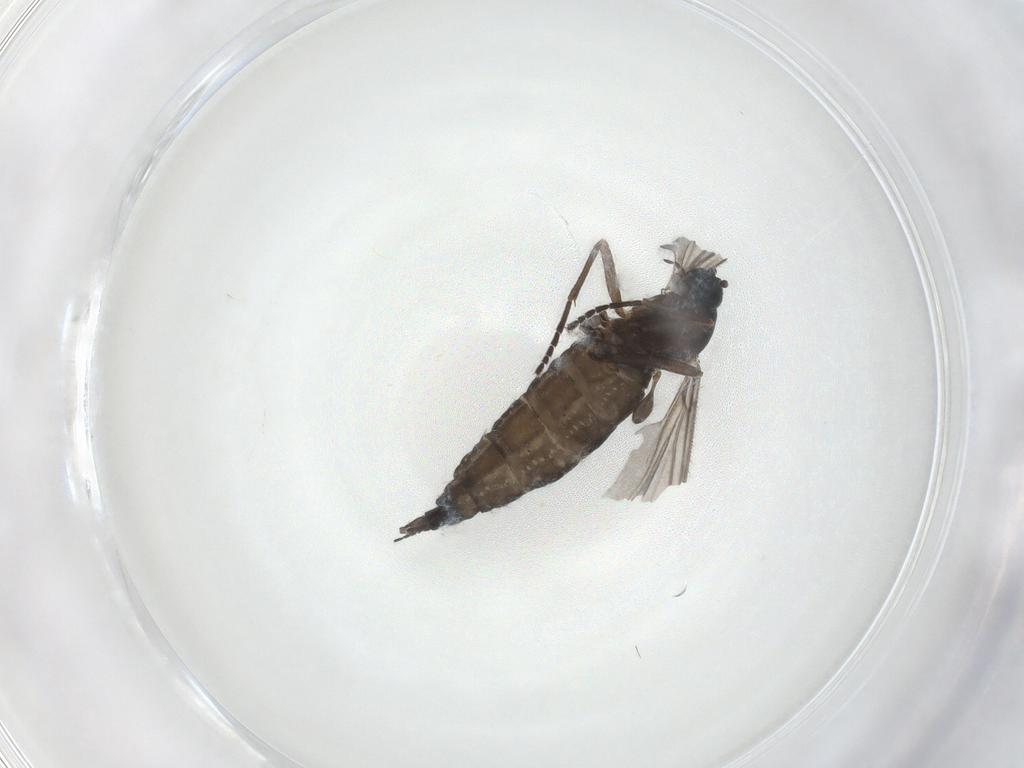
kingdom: Animalia
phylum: Arthropoda
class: Insecta
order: Diptera
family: Sciaridae
